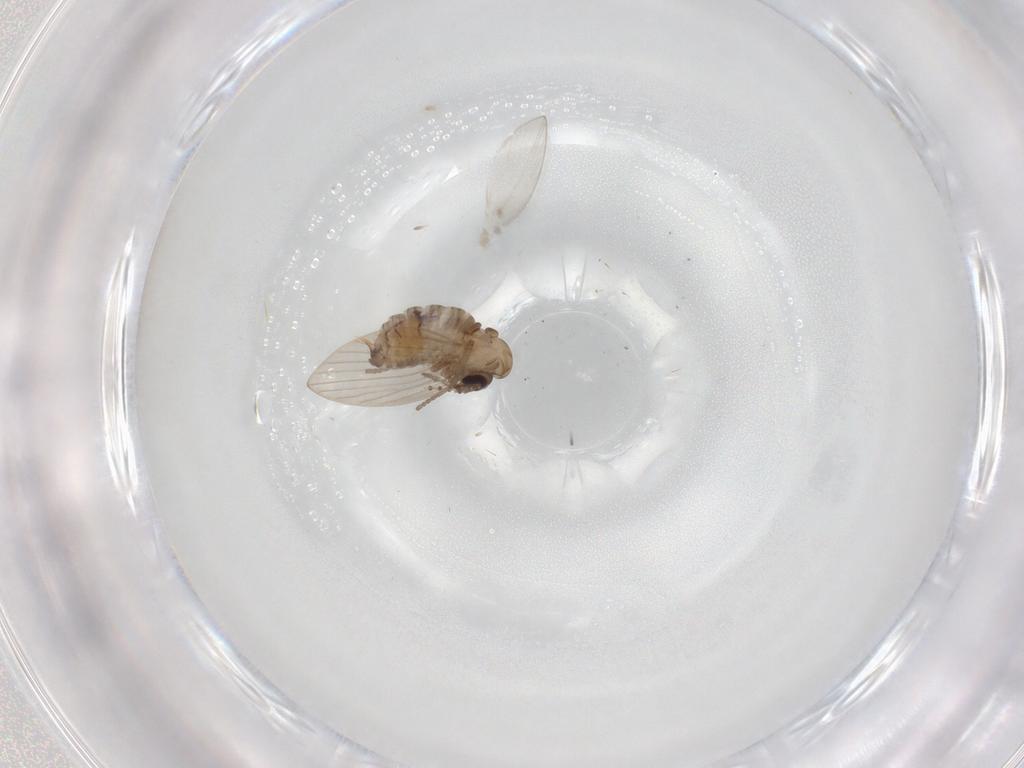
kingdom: Animalia
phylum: Arthropoda
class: Insecta
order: Diptera
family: Psychodidae
